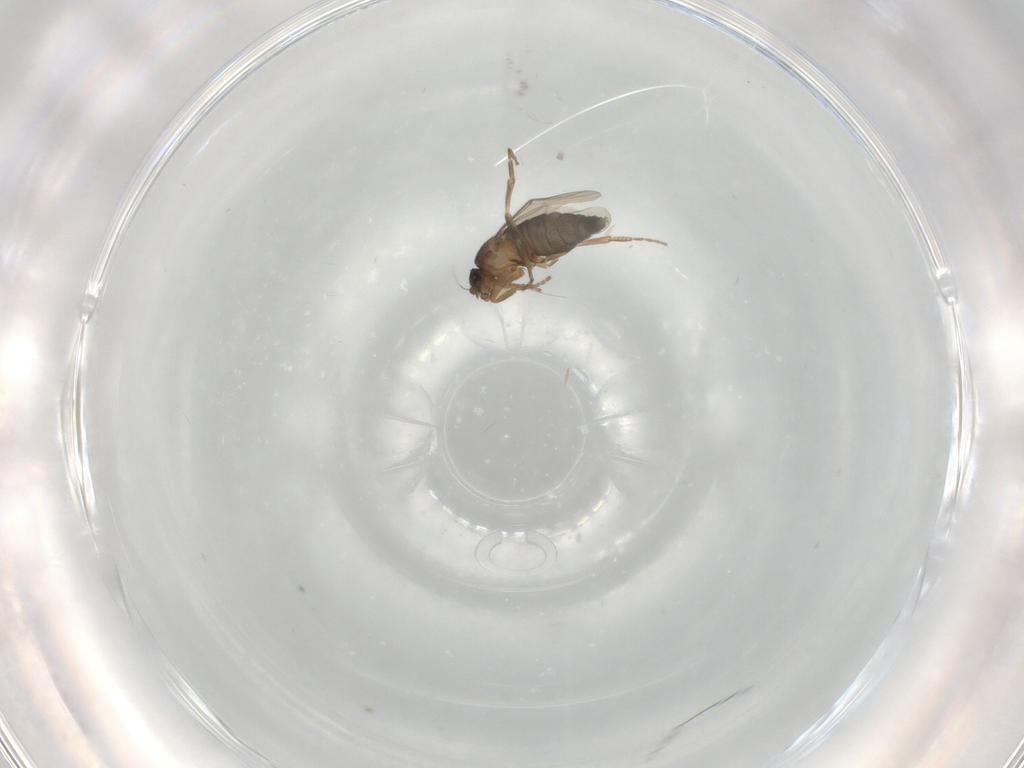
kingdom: Animalia
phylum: Arthropoda
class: Insecta
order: Diptera
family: Phoridae
